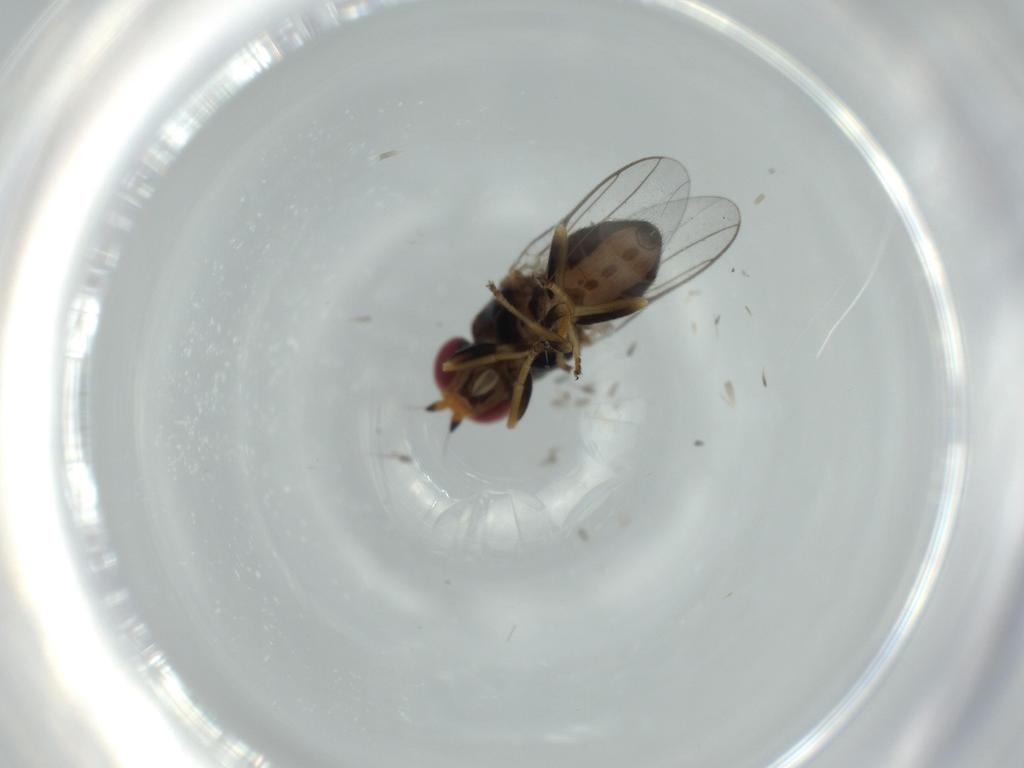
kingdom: Animalia
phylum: Arthropoda
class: Insecta
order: Diptera
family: Chloropidae
